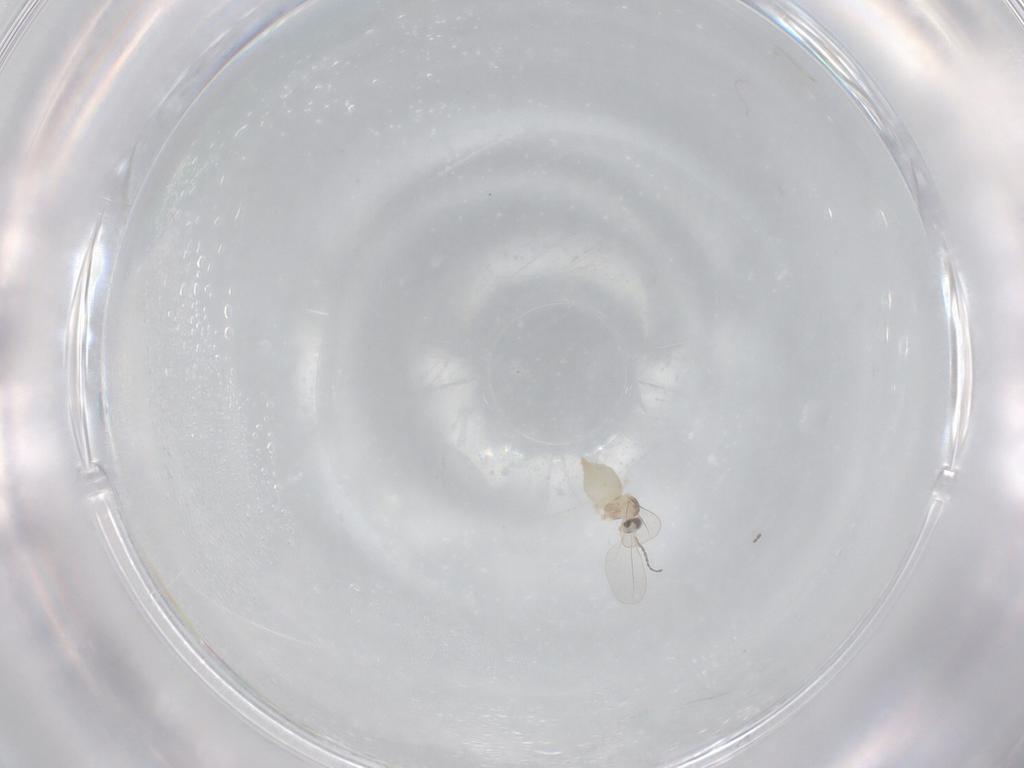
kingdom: Animalia
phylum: Arthropoda
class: Insecta
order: Diptera
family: Cecidomyiidae
